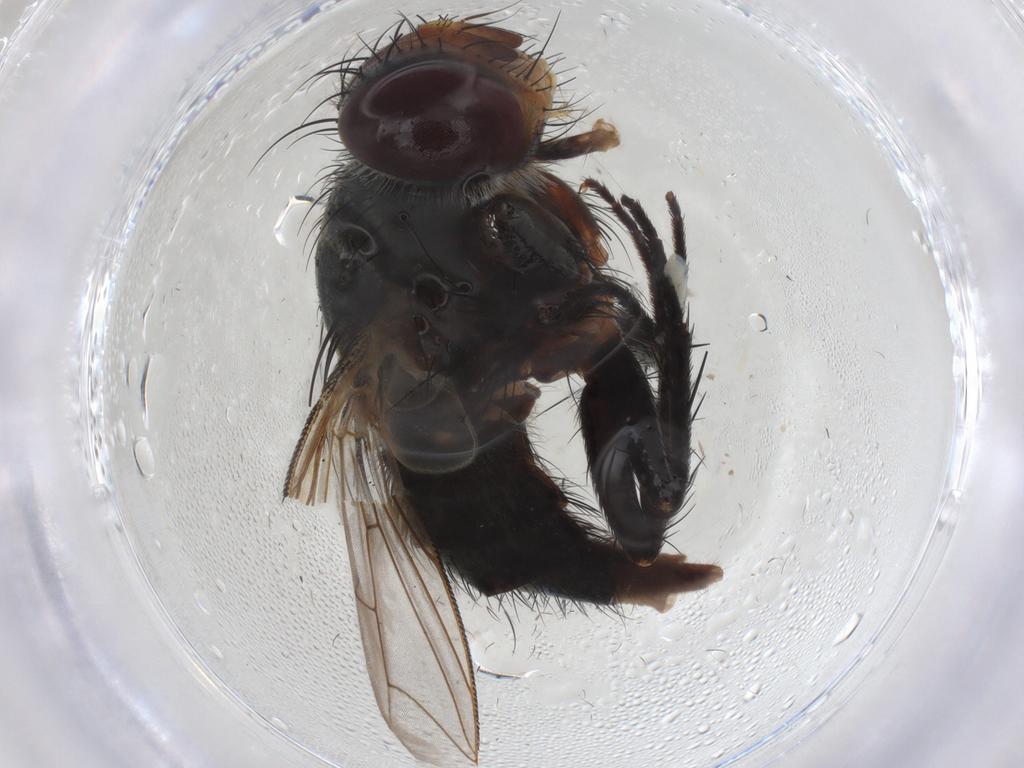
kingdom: Animalia
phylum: Arthropoda
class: Insecta
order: Diptera
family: Tachinidae
